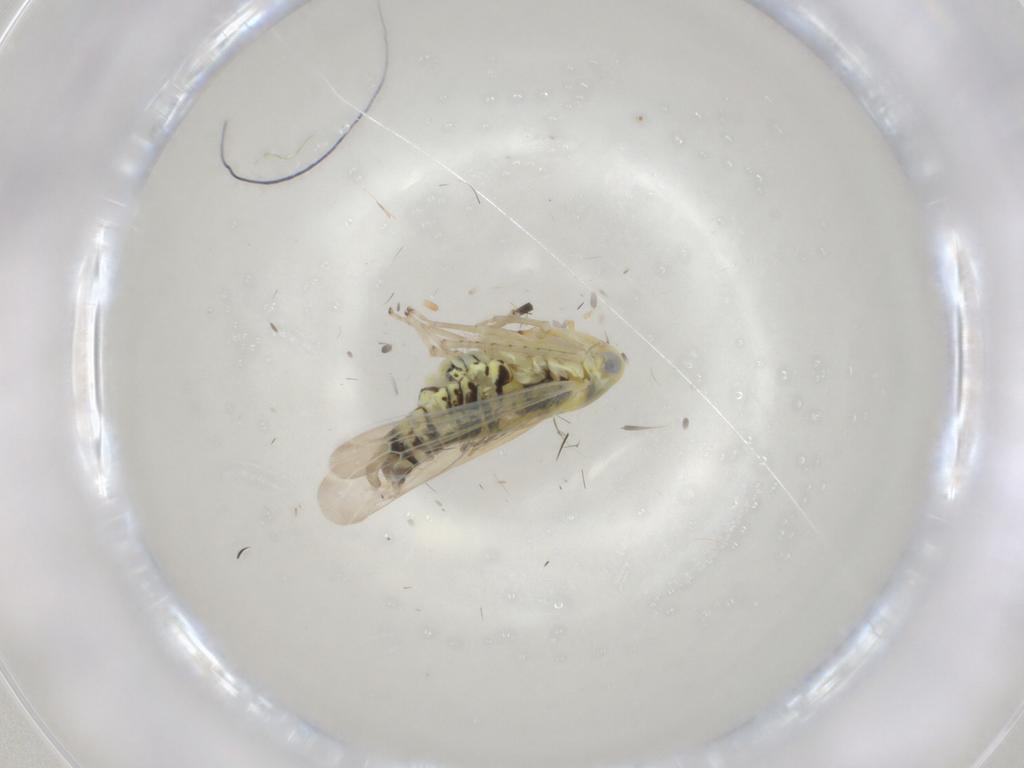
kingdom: Animalia
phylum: Arthropoda
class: Insecta
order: Hemiptera
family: Cicadellidae
